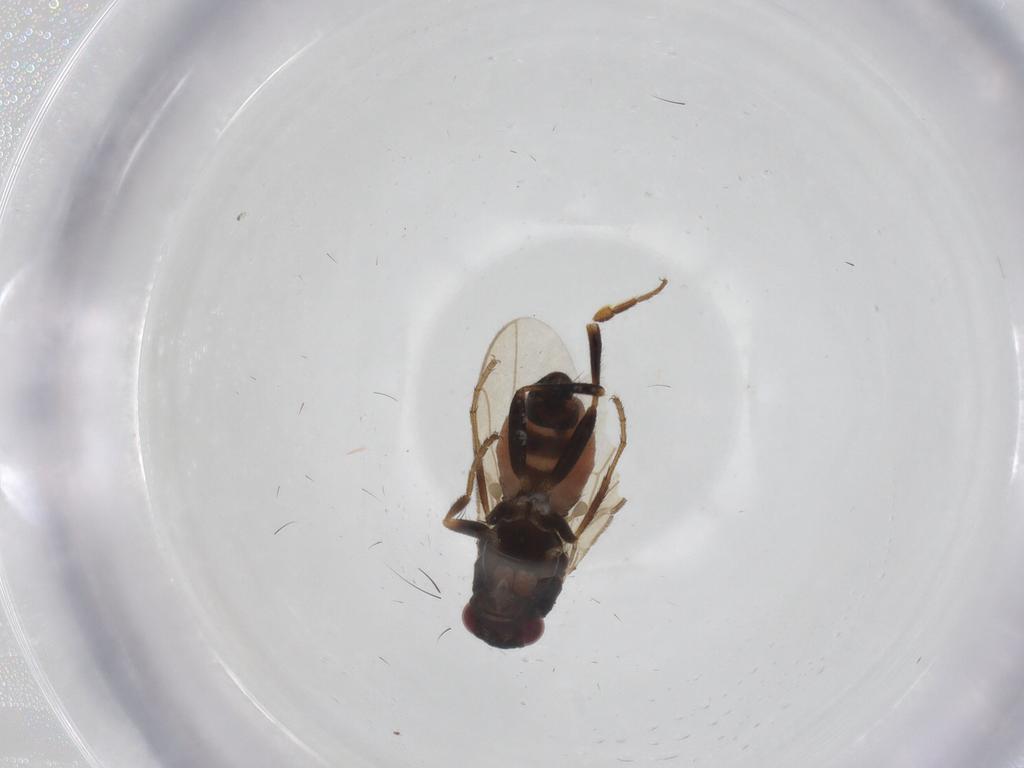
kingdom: Animalia
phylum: Arthropoda
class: Insecta
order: Diptera
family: Sphaeroceridae
